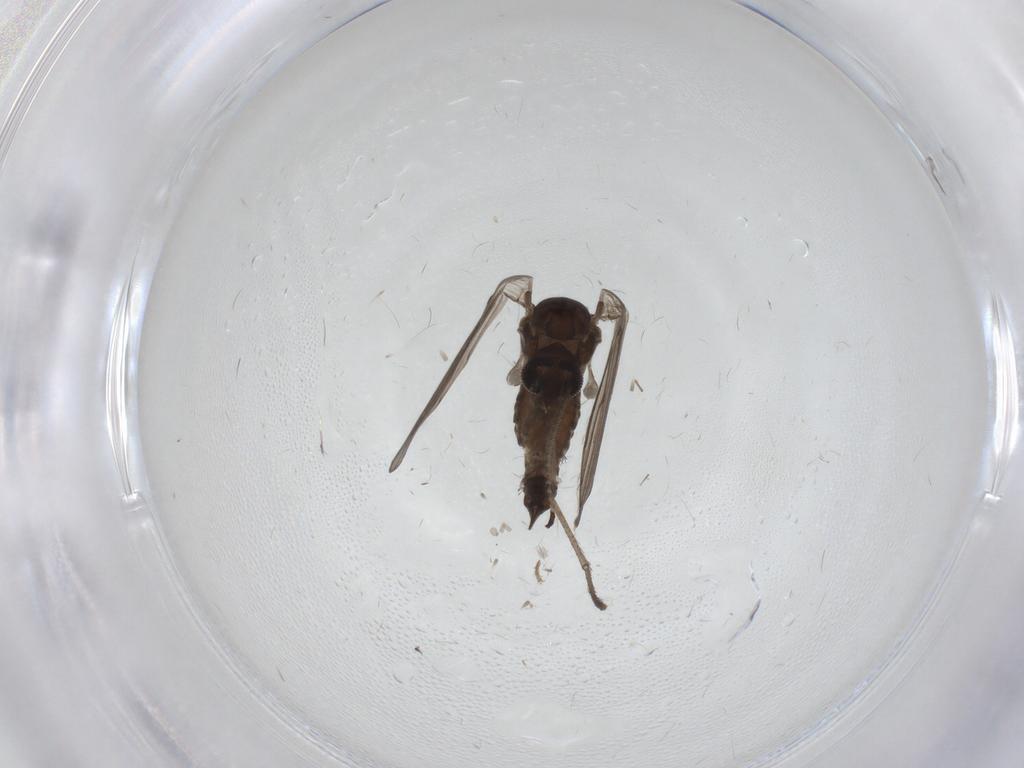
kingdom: Animalia
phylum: Arthropoda
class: Insecta
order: Diptera
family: Psychodidae
